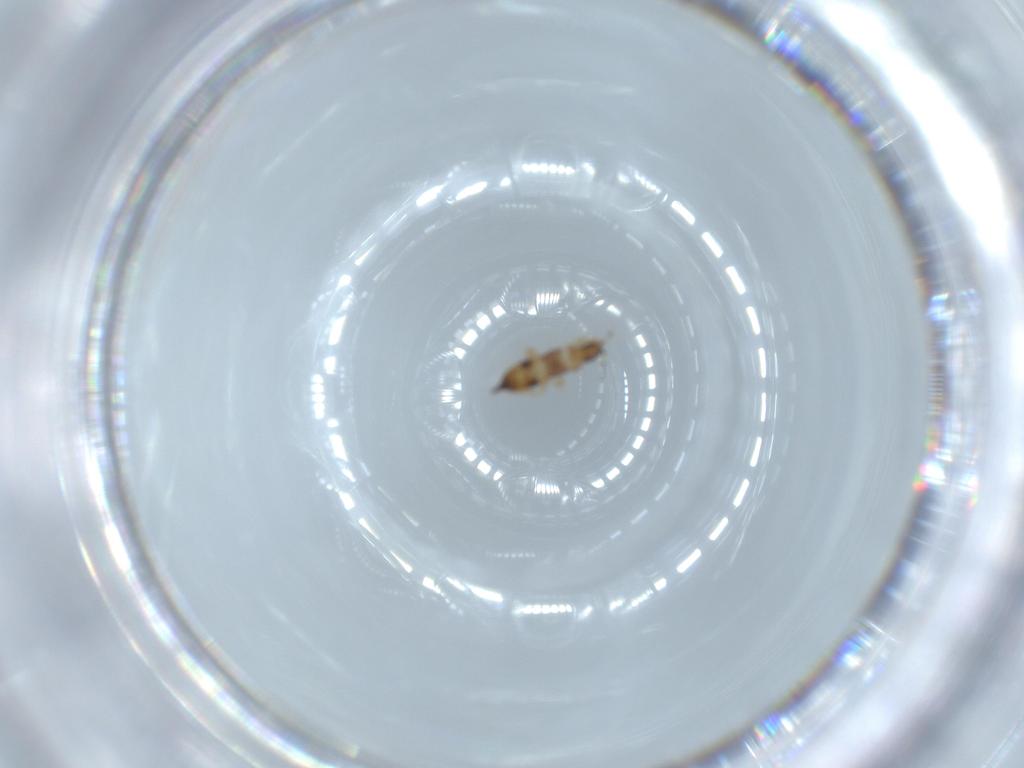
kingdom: Animalia
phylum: Arthropoda
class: Insecta
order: Thysanoptera
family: Phlaeothripidae
